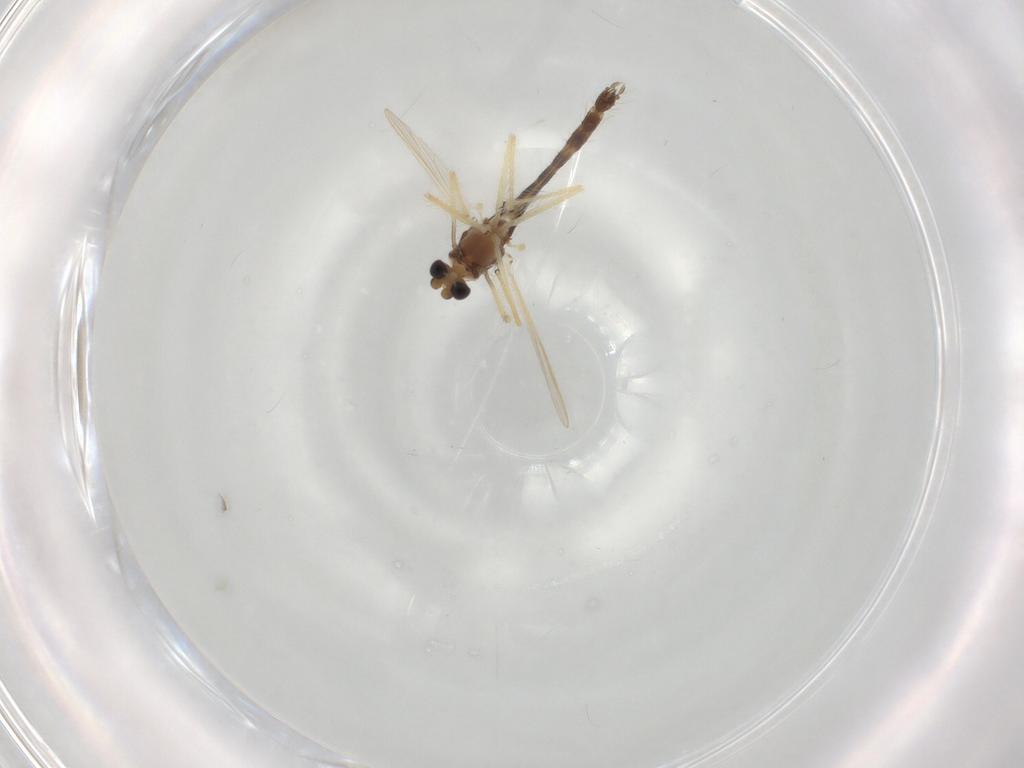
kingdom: Animalia
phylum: Arthropoda
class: Insecta
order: Diptera
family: Chironomidae
